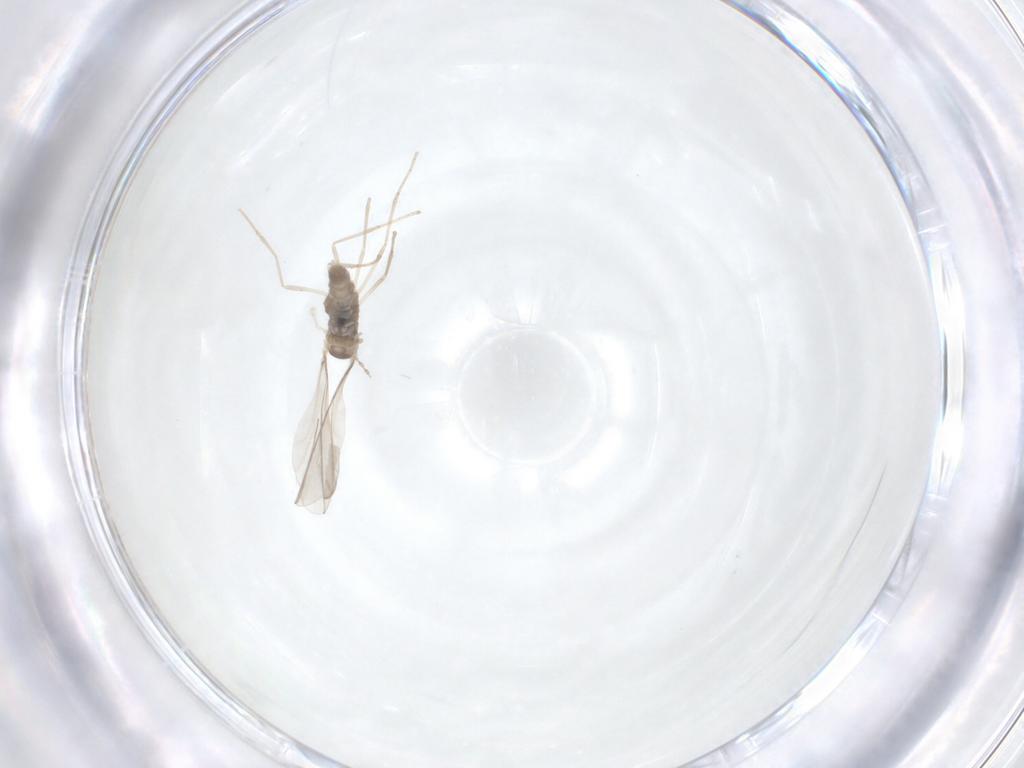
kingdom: Animalia
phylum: Arthropoda
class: Insecta
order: Diptera
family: Cecidomyiidae
